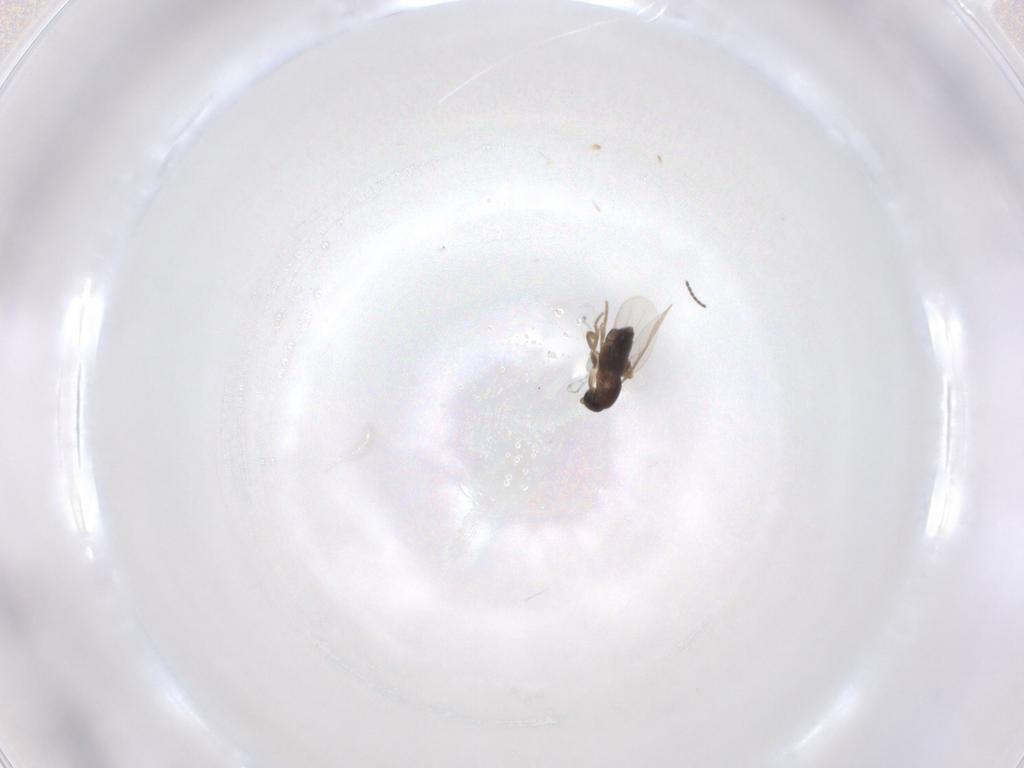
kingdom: Animalia
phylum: Arthropoda
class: Insecta
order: Diptera
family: Sciaridae
